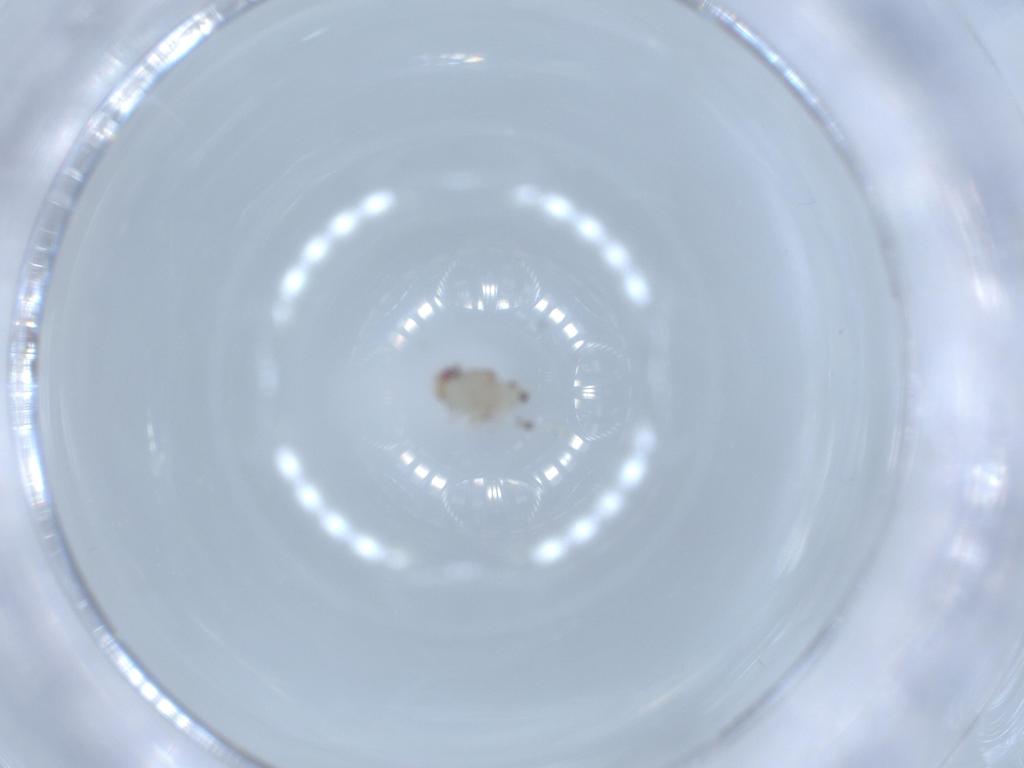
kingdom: Animalia
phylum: Arthropoda
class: Insecta
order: Hemiptera
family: Nogodinidae
